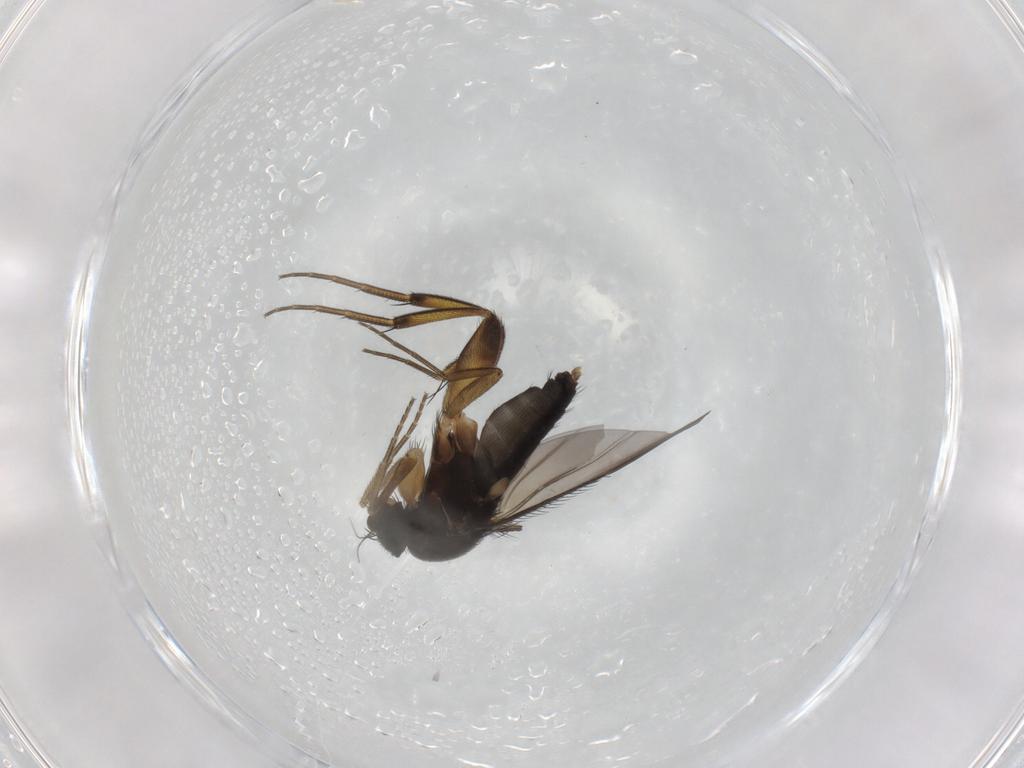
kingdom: Animalia
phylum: Arthropoda
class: Insecta
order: Diptera
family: Phoridae
